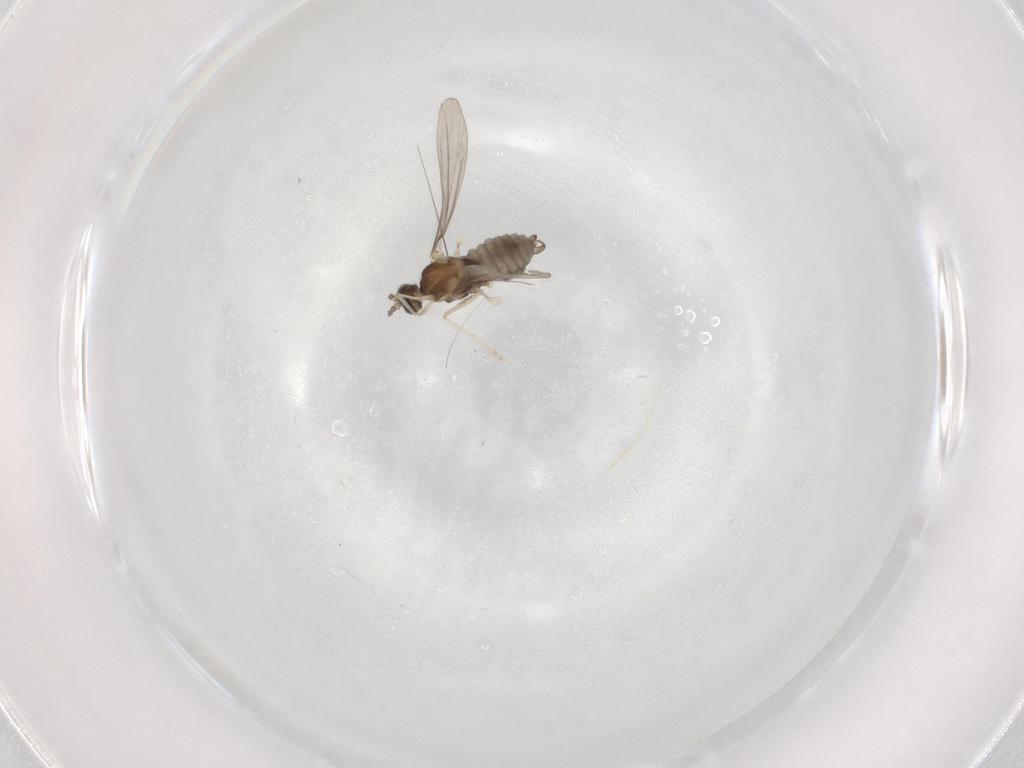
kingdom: Animalia
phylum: Arthropoda
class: Insecta
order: Diptera
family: Cecidomyiidae
